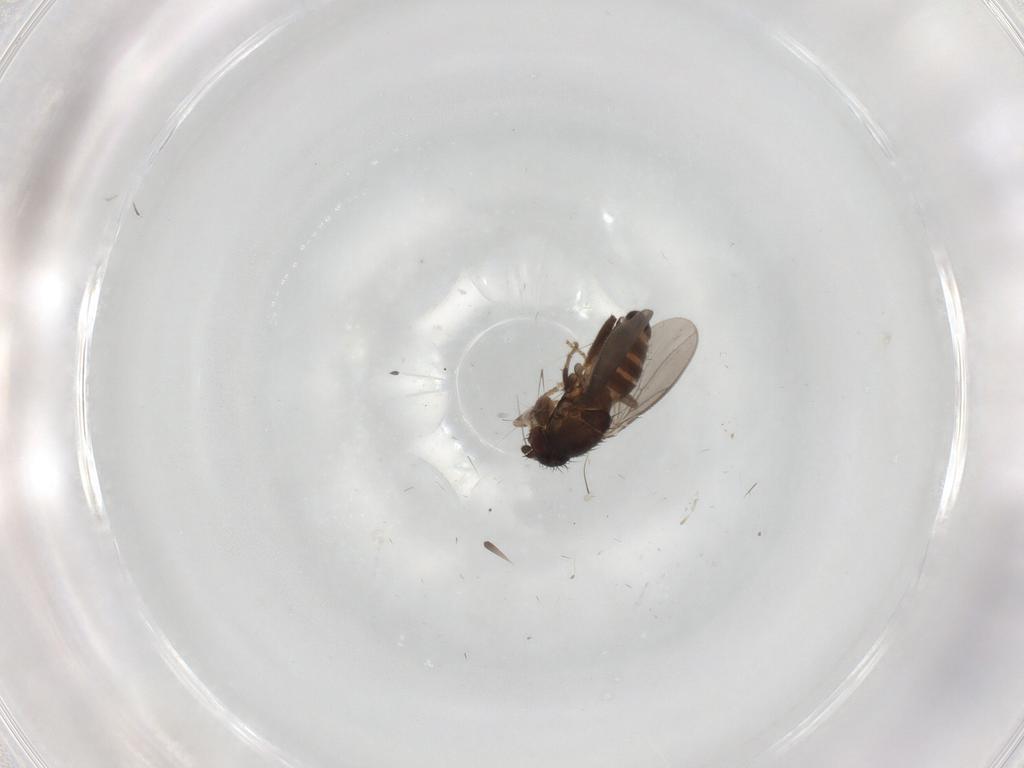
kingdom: Animalia
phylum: Arthropoda
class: Insecta
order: Diptera
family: Sphaeroceridae
